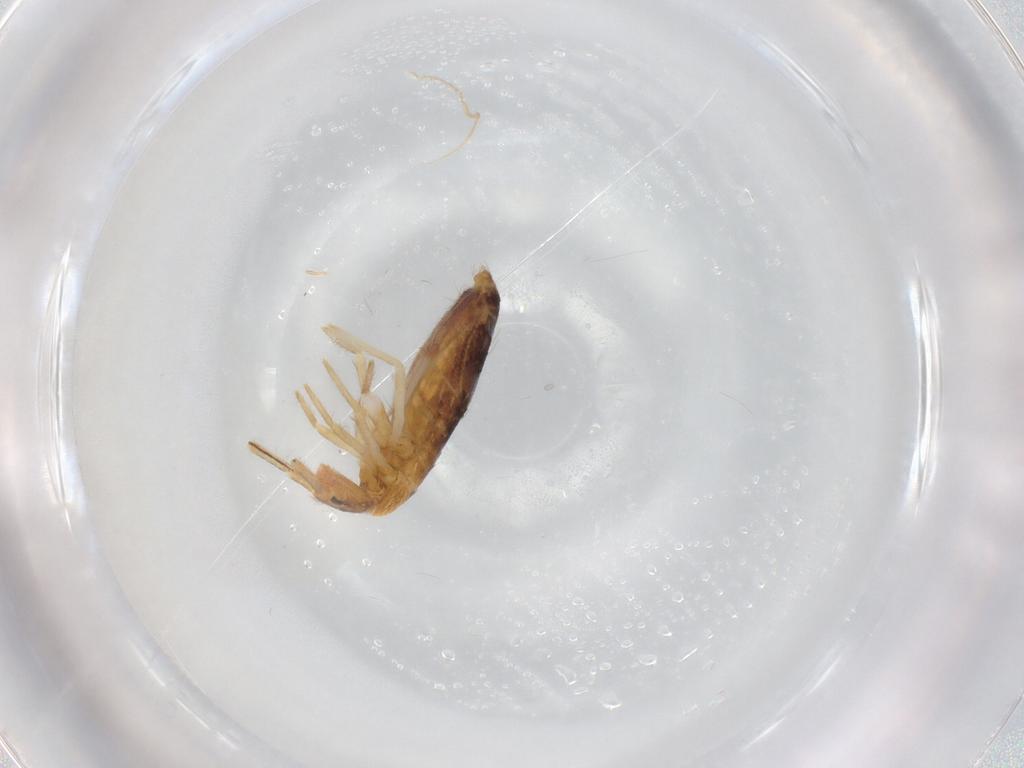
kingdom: Animalia
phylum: Arthropoda
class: Collembola
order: Entomobryomorpha
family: Entomobryidae
